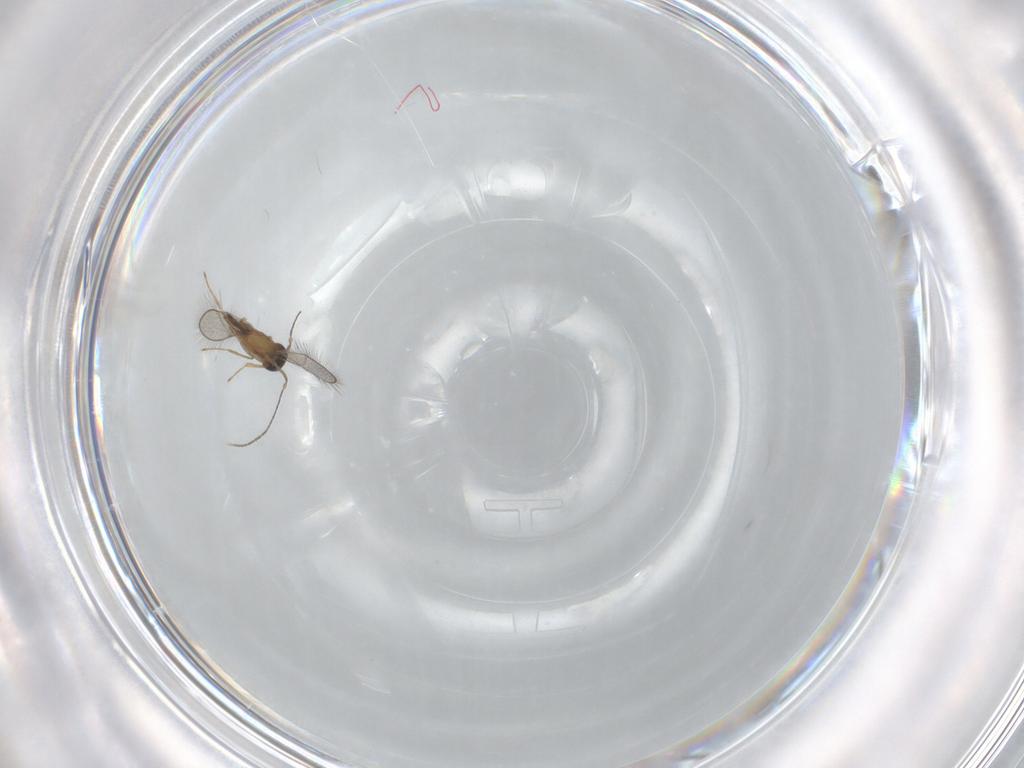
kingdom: Animalia
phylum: Arthropoda
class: Insecta
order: Hymenoptera
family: Mymaridae
